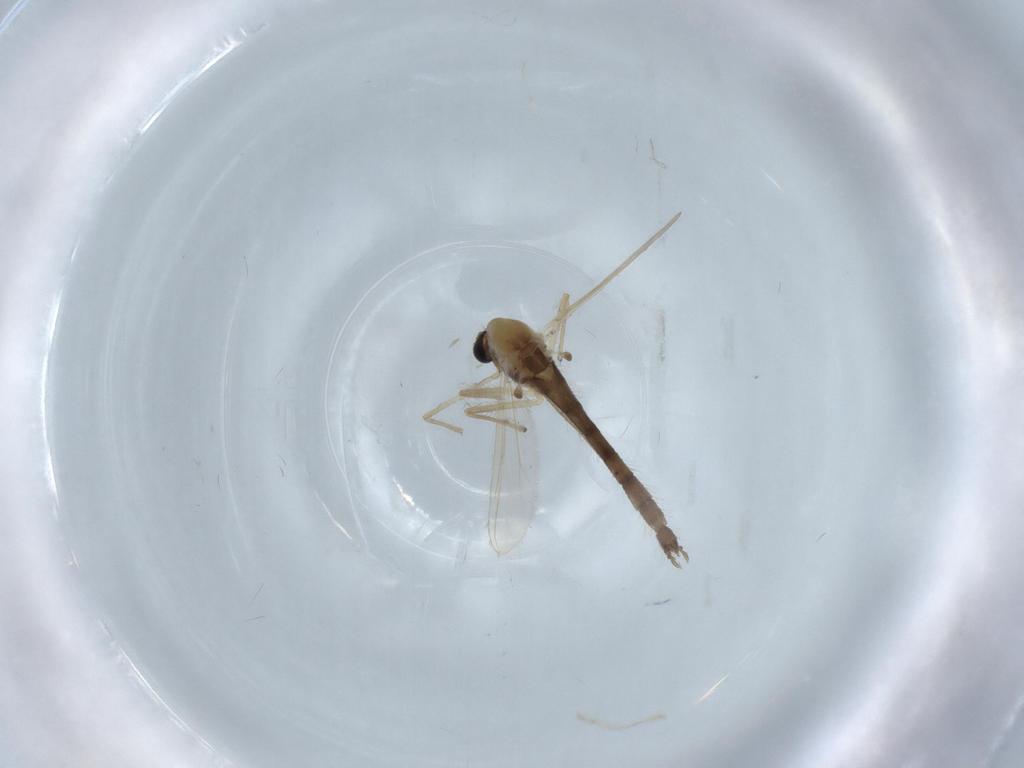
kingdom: Animalia
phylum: Arthropoda
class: Insecta
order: Diptera
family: Chironomidae
